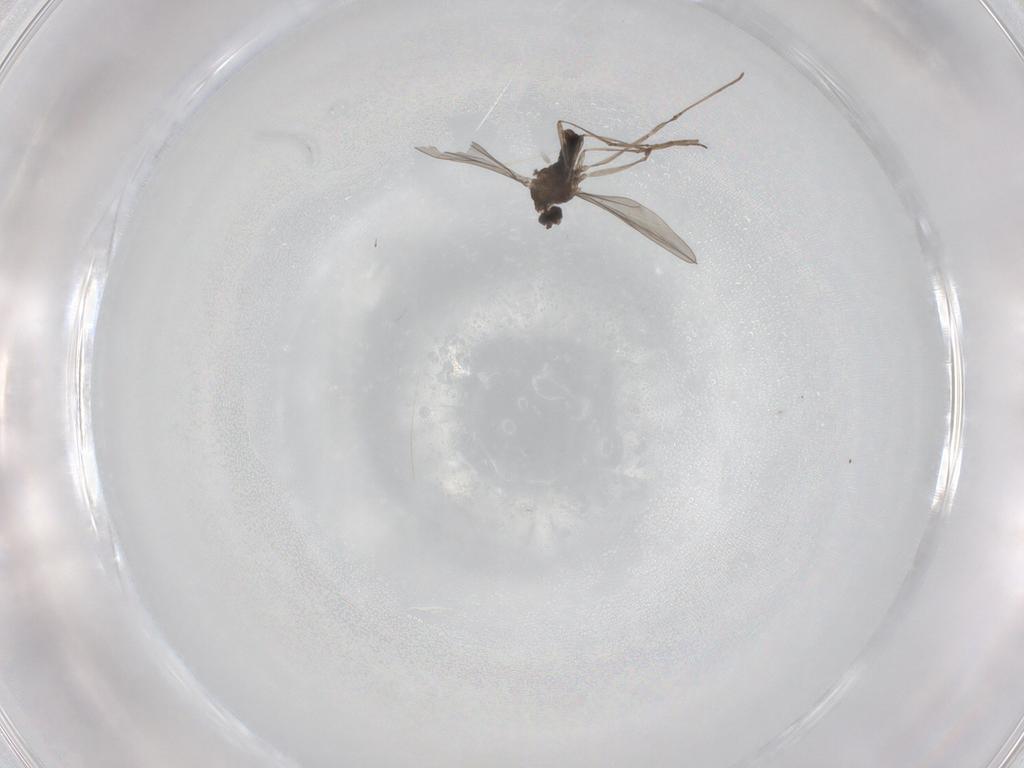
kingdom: Animalia
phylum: Arthropoda
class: Insecta
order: Diptera
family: Cecidomyiidae
